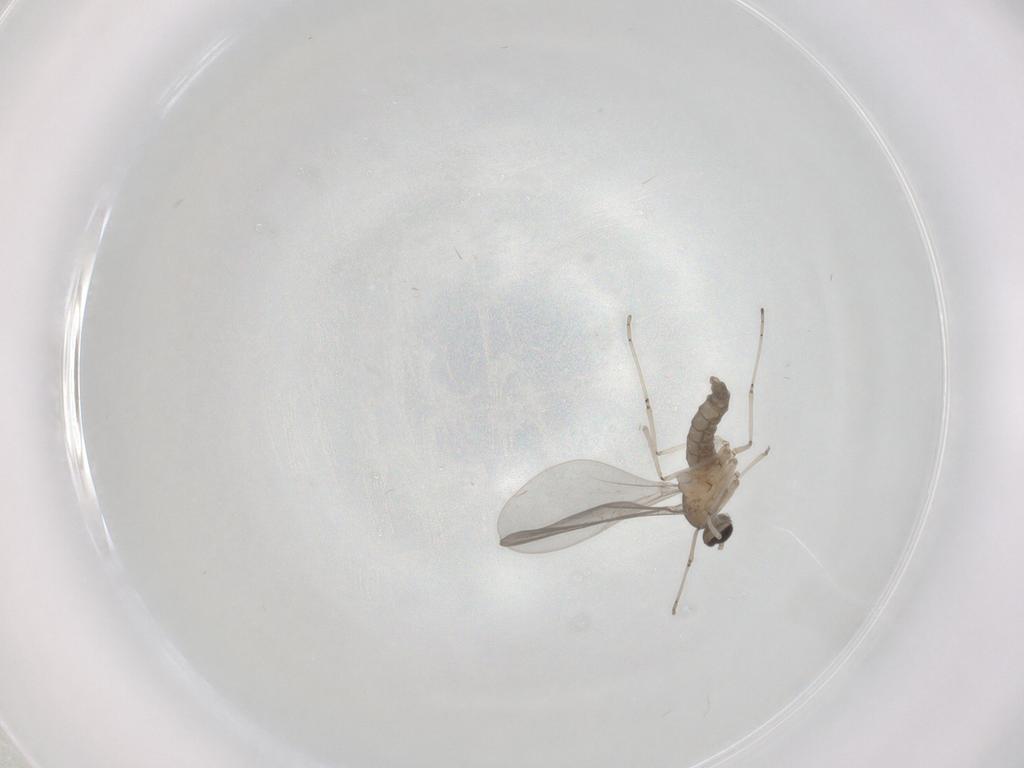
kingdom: Animalia
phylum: Arthropoda
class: Insecta
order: Diptera
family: Cecidomyiidae
